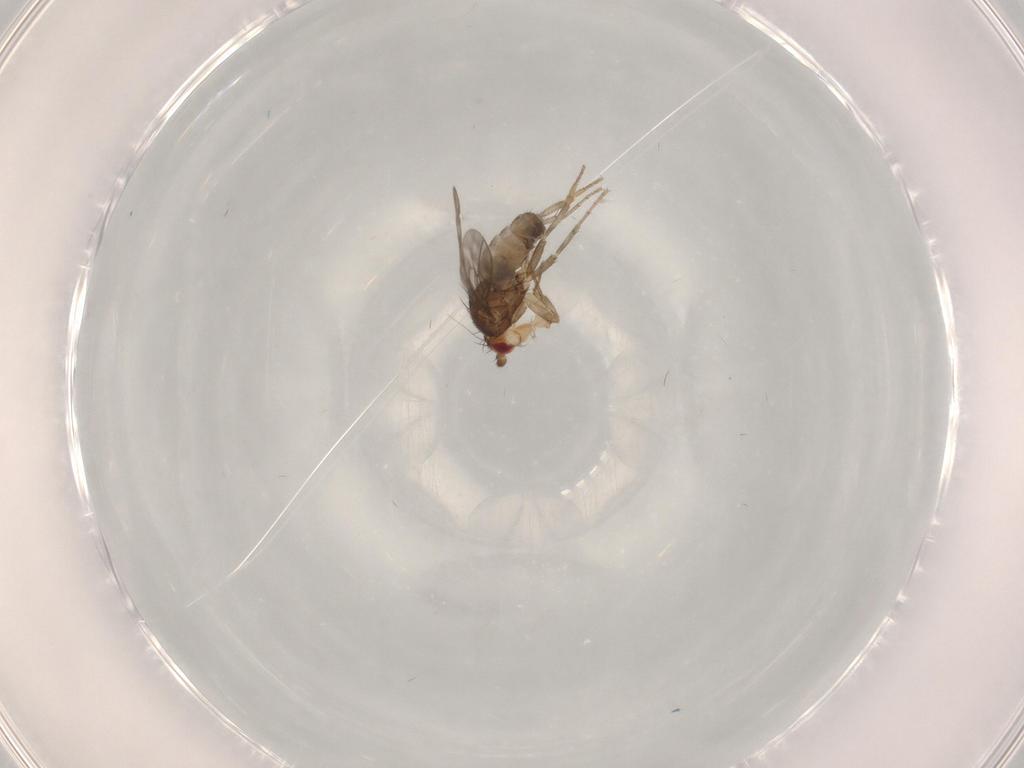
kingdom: Animalia
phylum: Arthropoda
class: Insecta
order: Diptera
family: Sphaeroceridae
